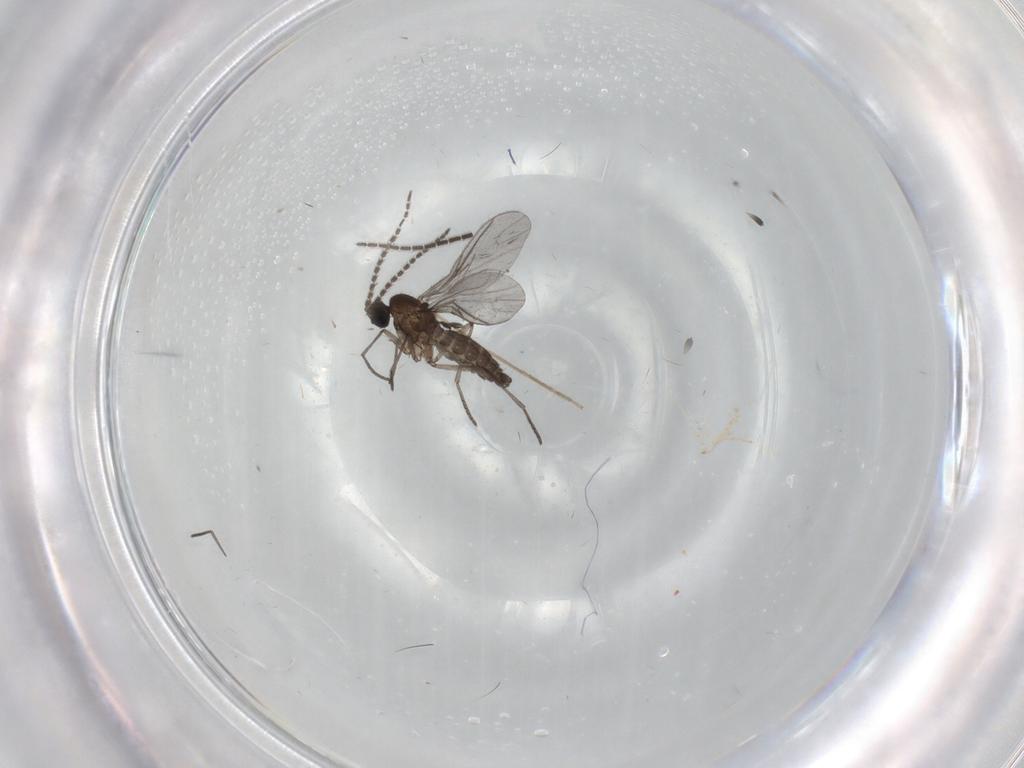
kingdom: Animalia
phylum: Arthropoda
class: Insecta
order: Diptera
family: Sciaridae
